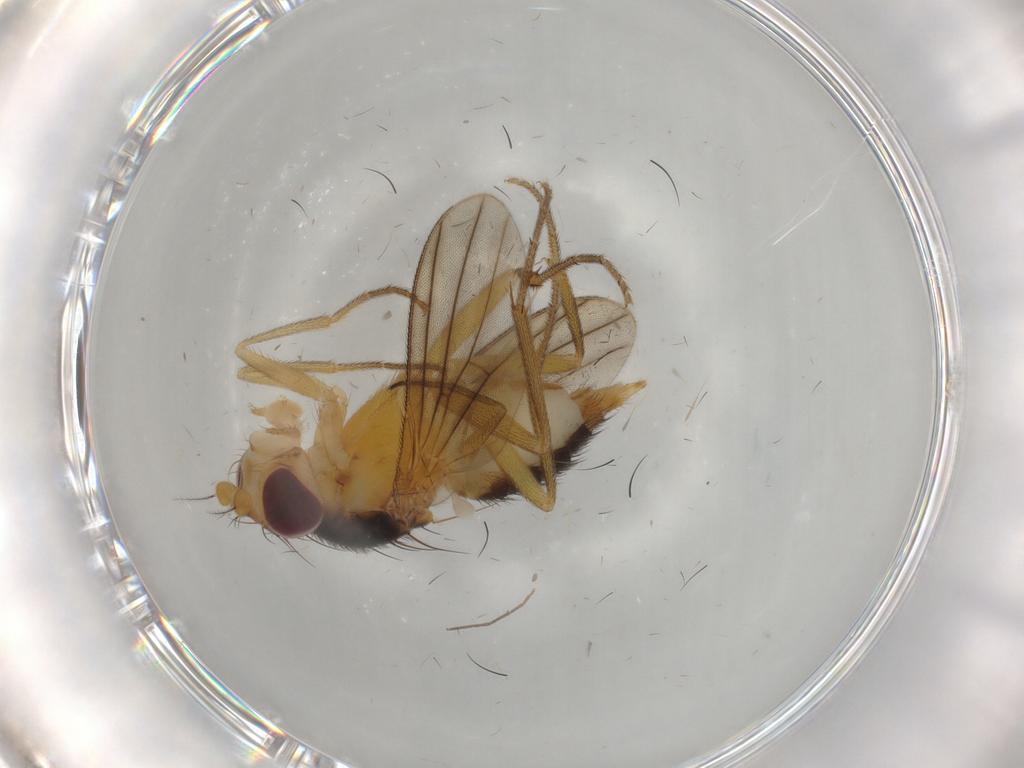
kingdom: Animalia
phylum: Arthropoda
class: Insecta
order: Diptera
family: Clusiidae
